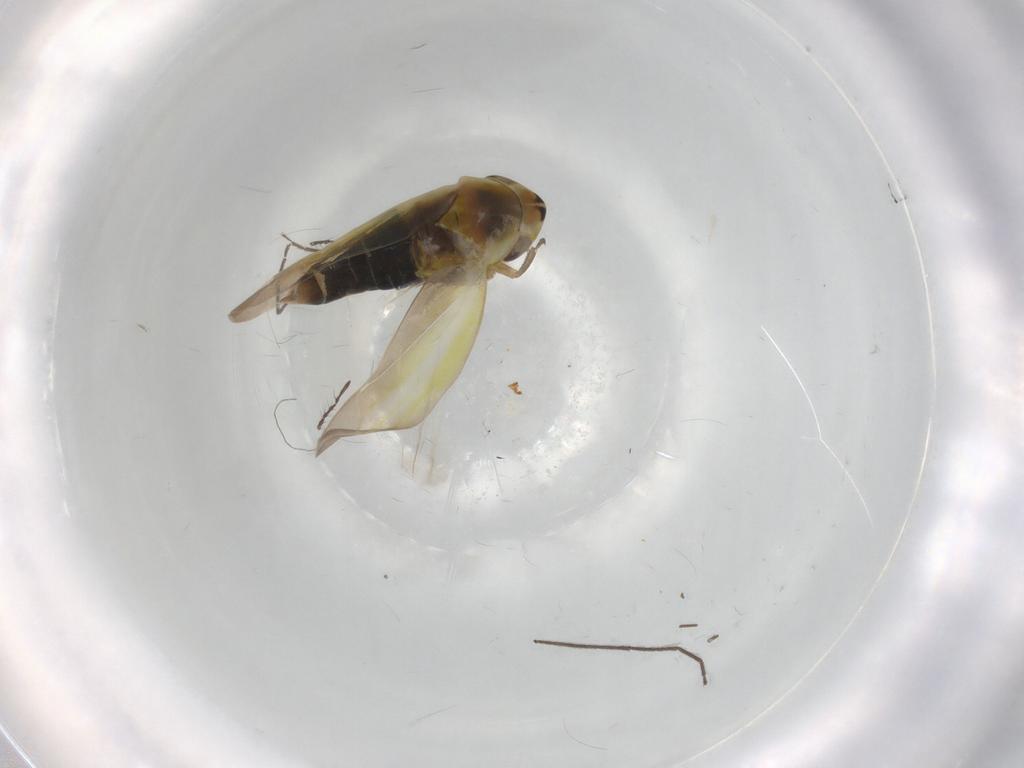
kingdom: Animalia
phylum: Arthropoda
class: Insecta
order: Hemiptera
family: Cicadellidae
